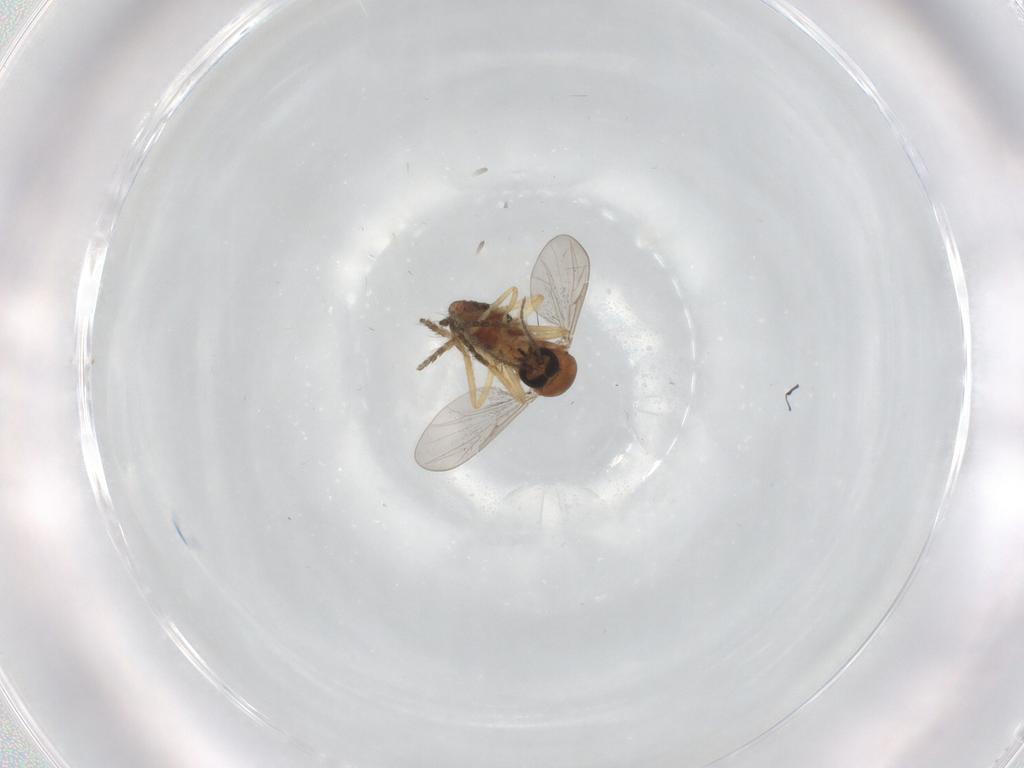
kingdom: Animalia
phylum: Arthropoda
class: Insecta
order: Diptera
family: Ceratopogonidae
